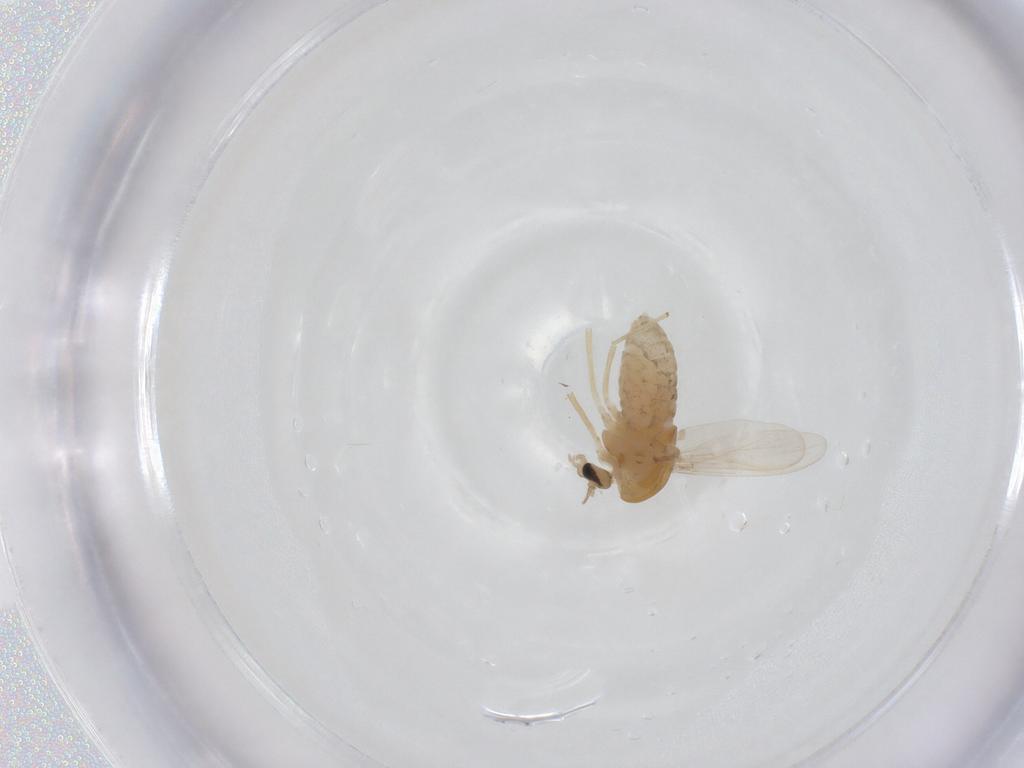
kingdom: Animalia
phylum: Arthropoda
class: Insecta
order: Diptera
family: Chironomidae
